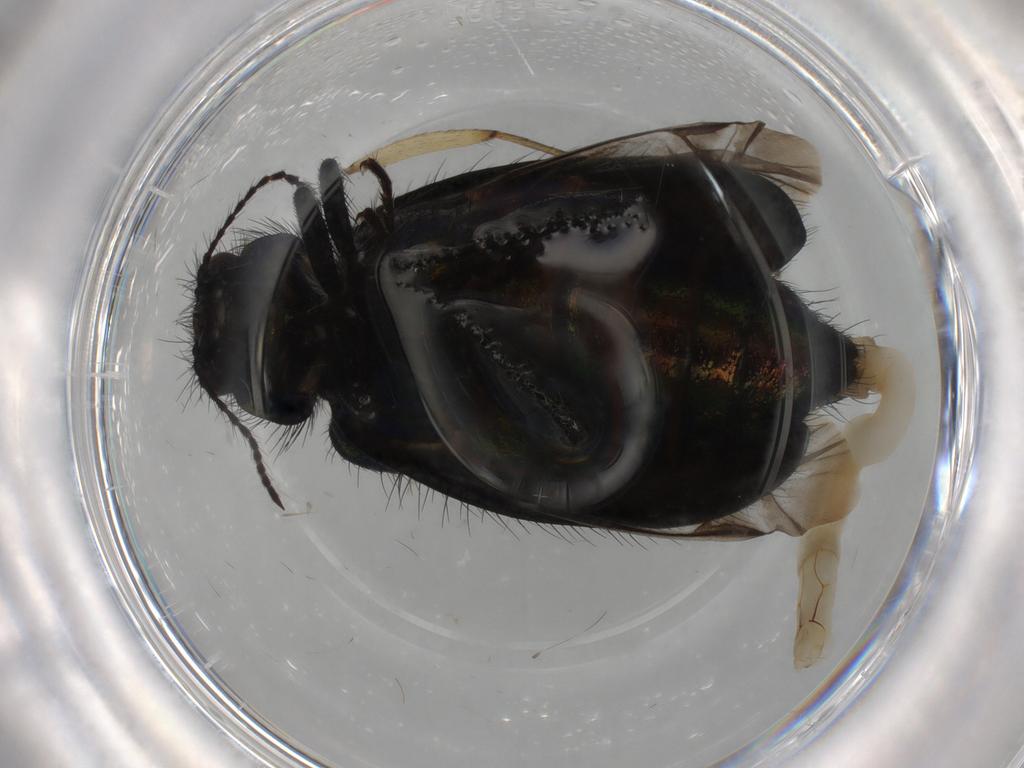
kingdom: Animalia
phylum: Arthropoda
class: Insecta
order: Coleoptera
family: Melyridae
